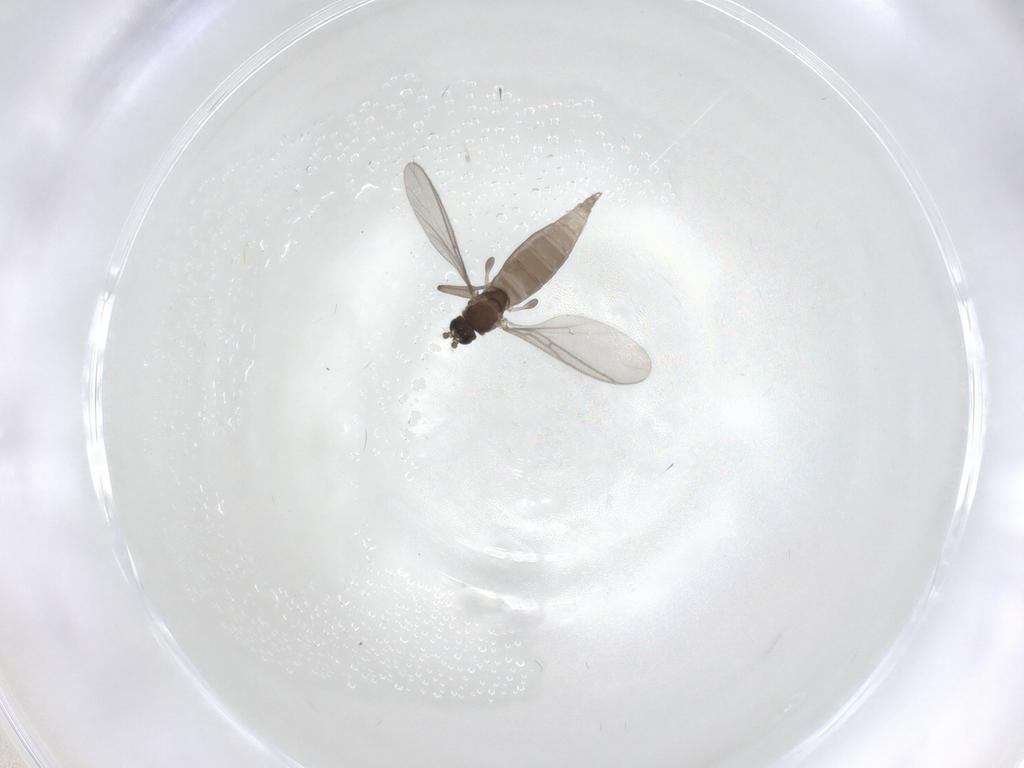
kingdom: Animalia
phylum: Arthropoda
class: Insecta
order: Diptera
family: Psychodidae
